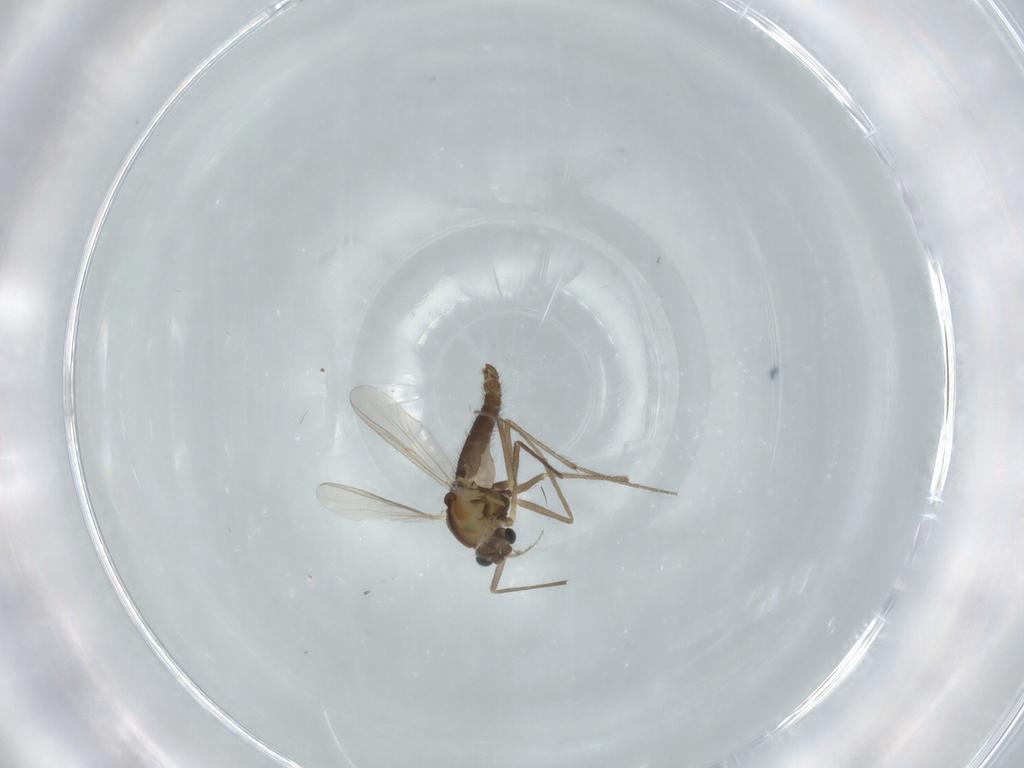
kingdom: Animalia
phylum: Arthropoda
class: Insecta
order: Diptera
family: Chironomidae
